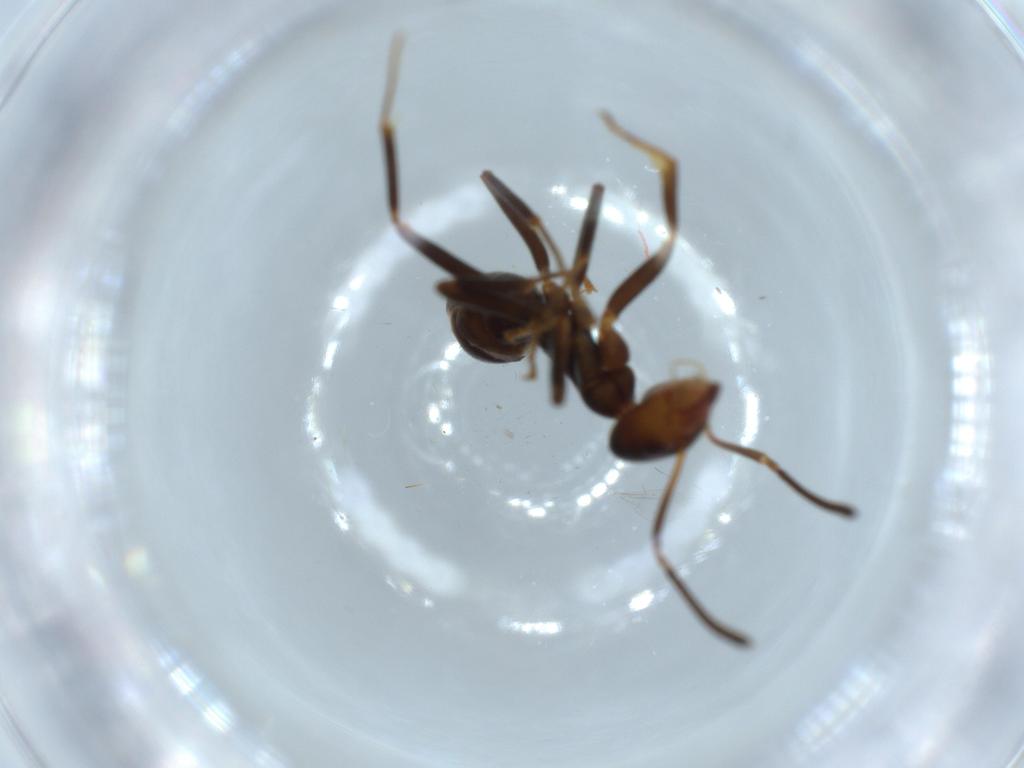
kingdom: Animalia
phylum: Arthropoda
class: Insecta
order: Hymenoptera
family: Formicidae
